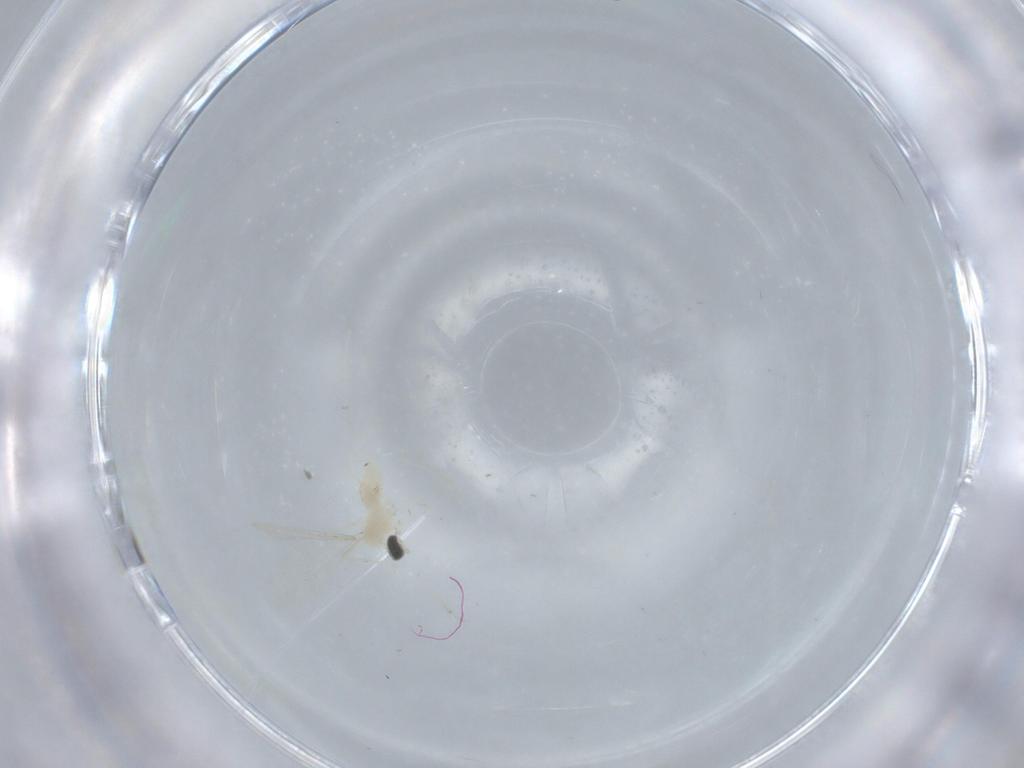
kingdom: Animalia
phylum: Arthropoda
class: Insecta
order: Diptera
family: Cecidomyiidae
